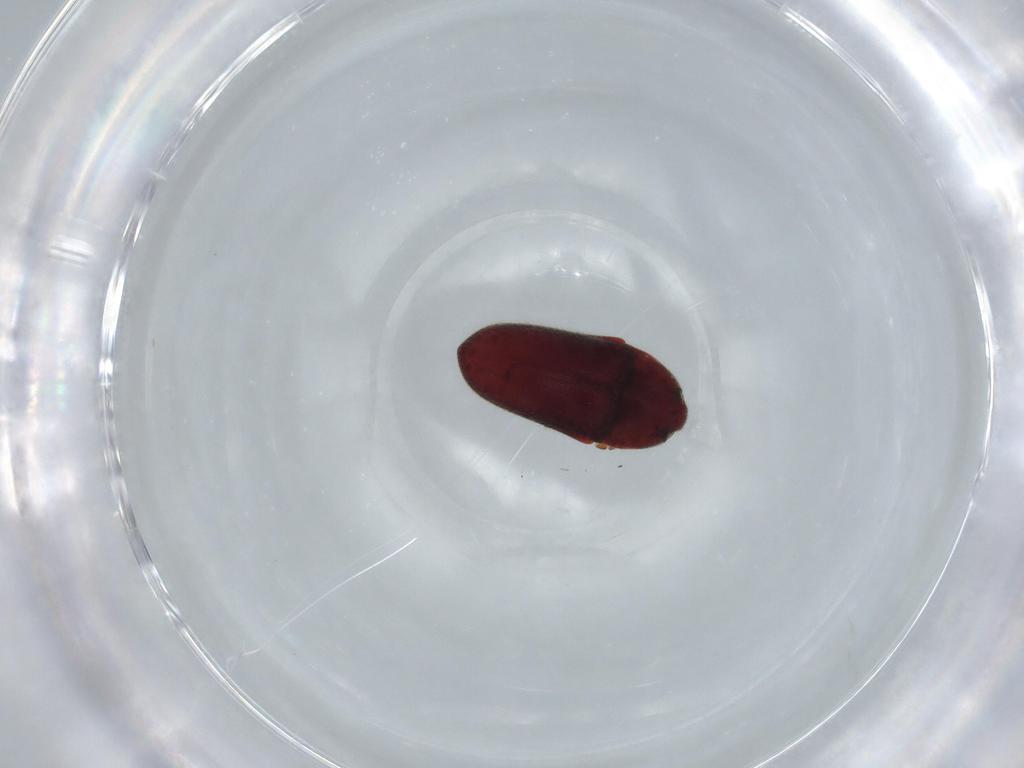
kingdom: Animalia
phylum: Arthropoda
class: Insecta
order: Coleoptera
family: Throscidae
